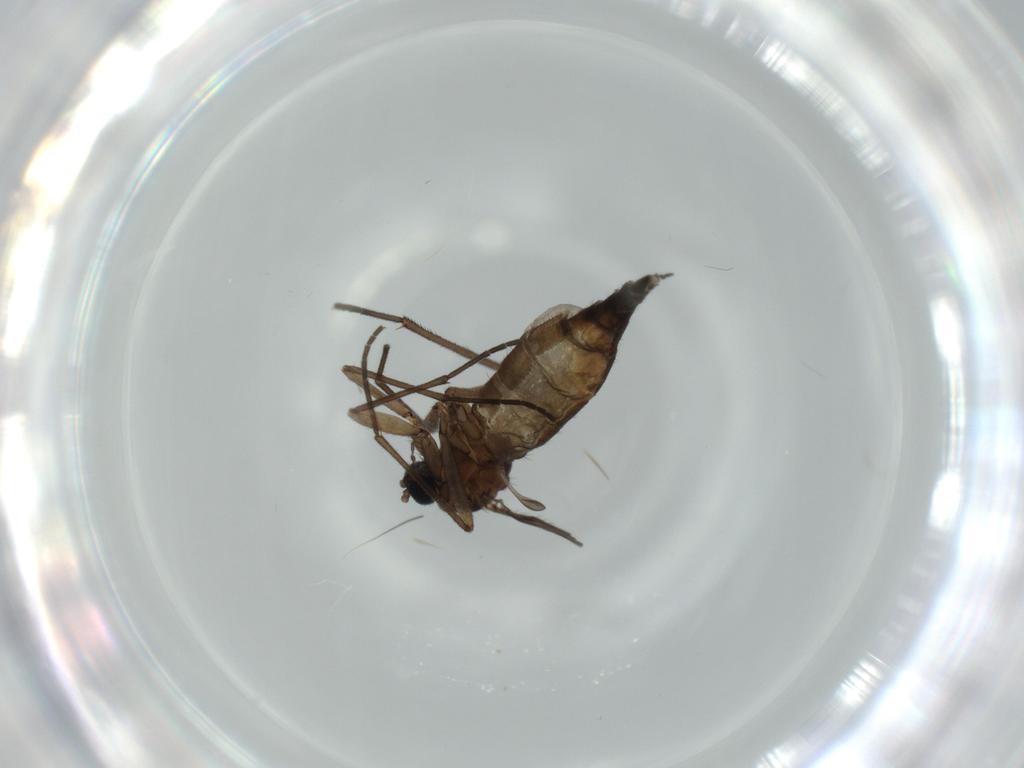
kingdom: Animalia
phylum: Arthropoda
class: Insecta
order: Diptera
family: Sciaridae
